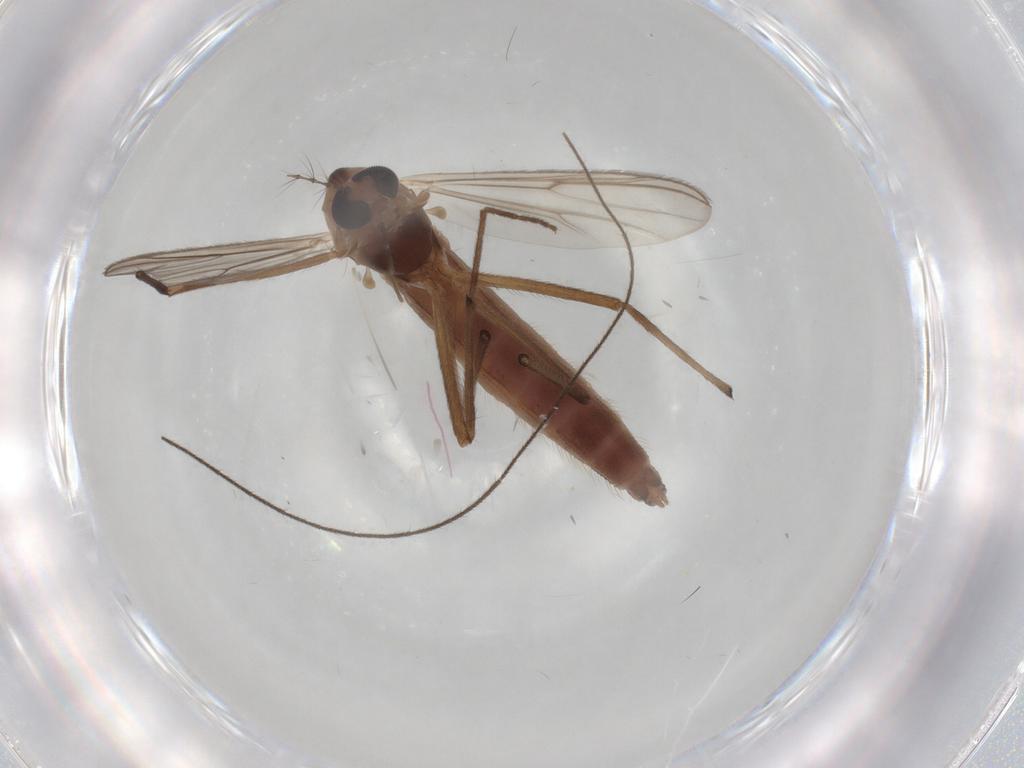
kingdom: Animalia
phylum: Arthropoda
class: Insecta
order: Diptera
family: Chironomidae
